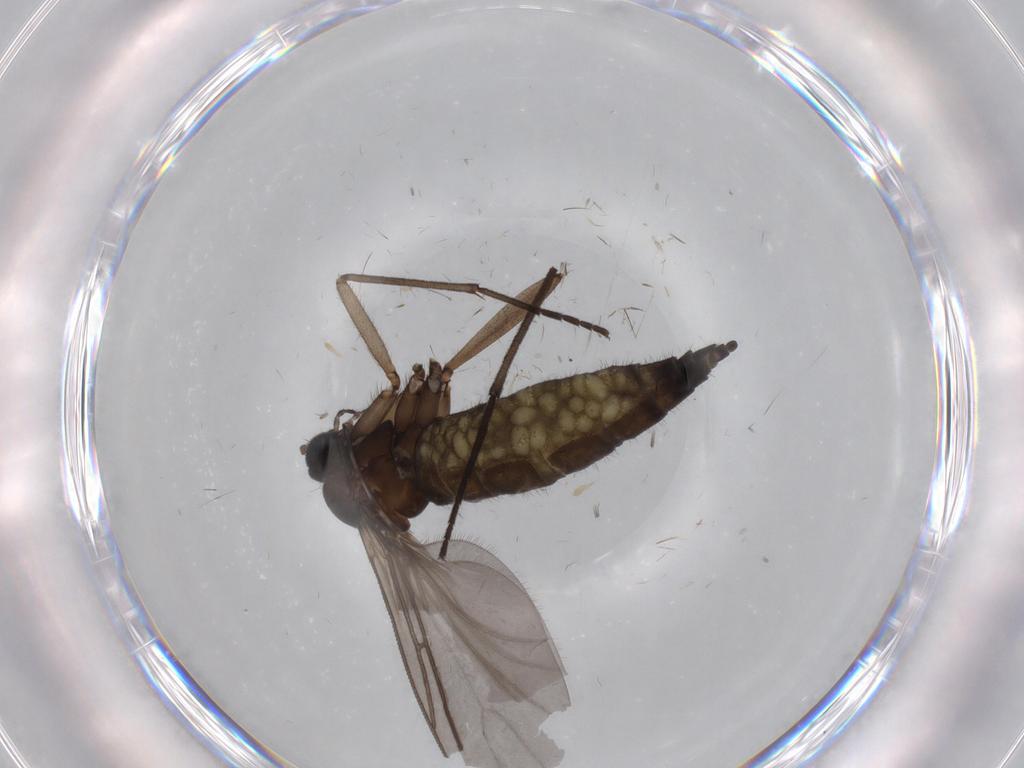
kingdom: Animalia
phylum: Arthropoda
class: Insecta
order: Diptera
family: Sciaridae
